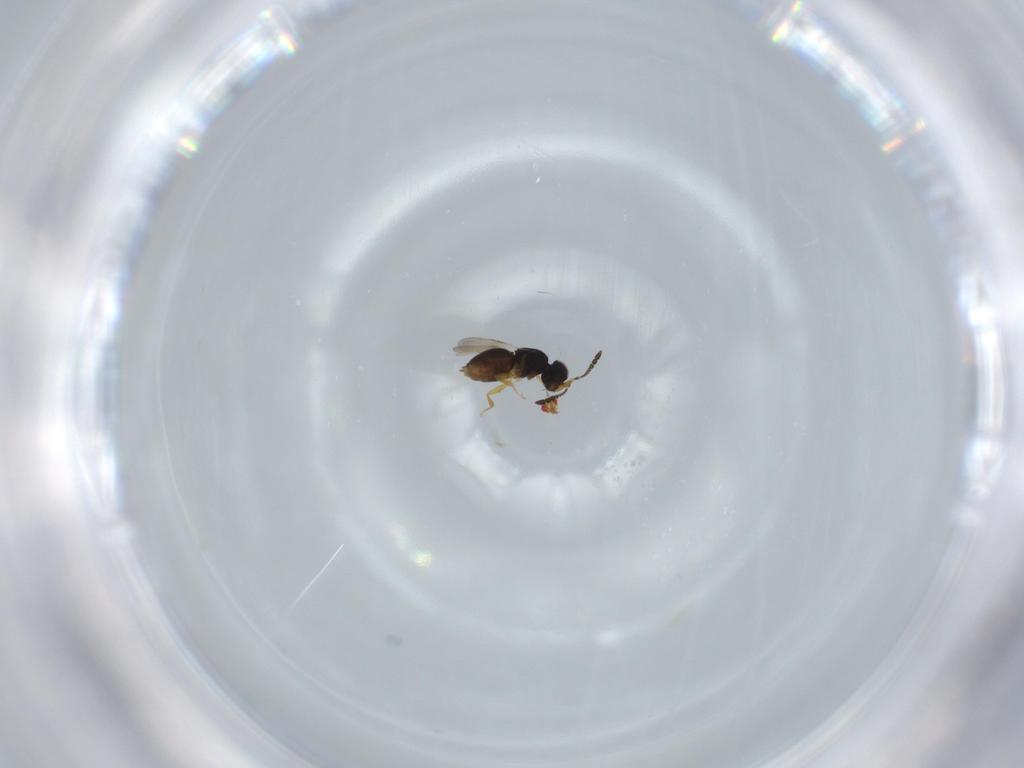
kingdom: Animalia
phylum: Arthropoda
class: Insecta
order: Hymenoptera
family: Trichogrammatidae
